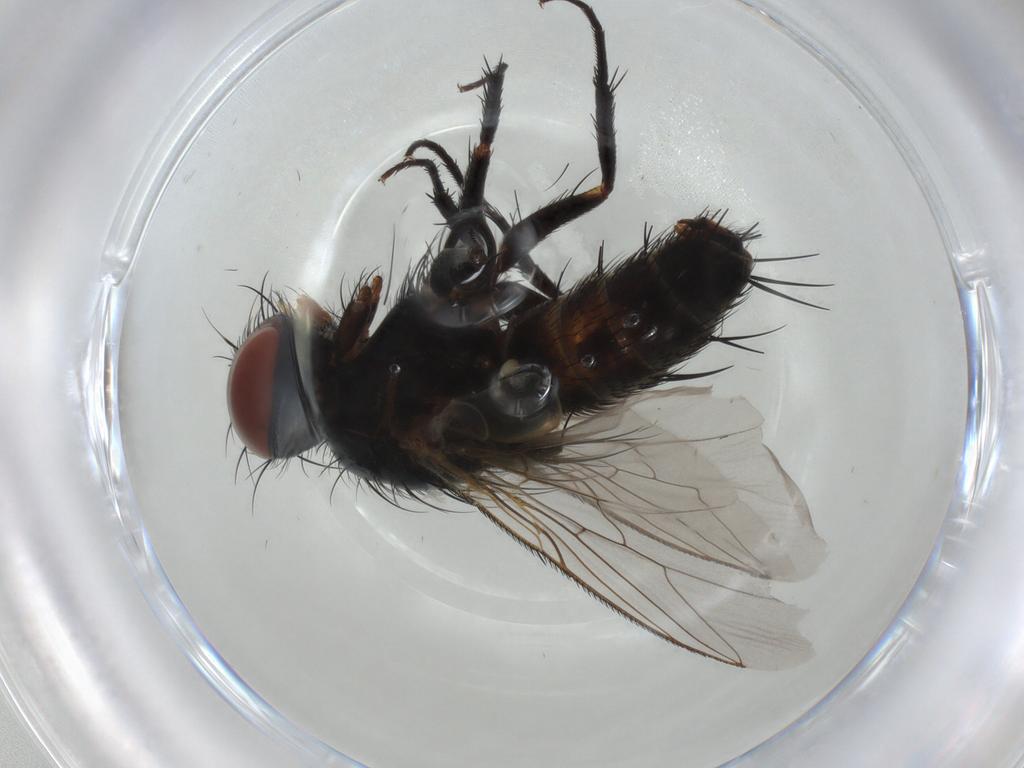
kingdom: Animalia
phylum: Arthropoda
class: Insecta
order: Diptera
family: Sarcophagidae
